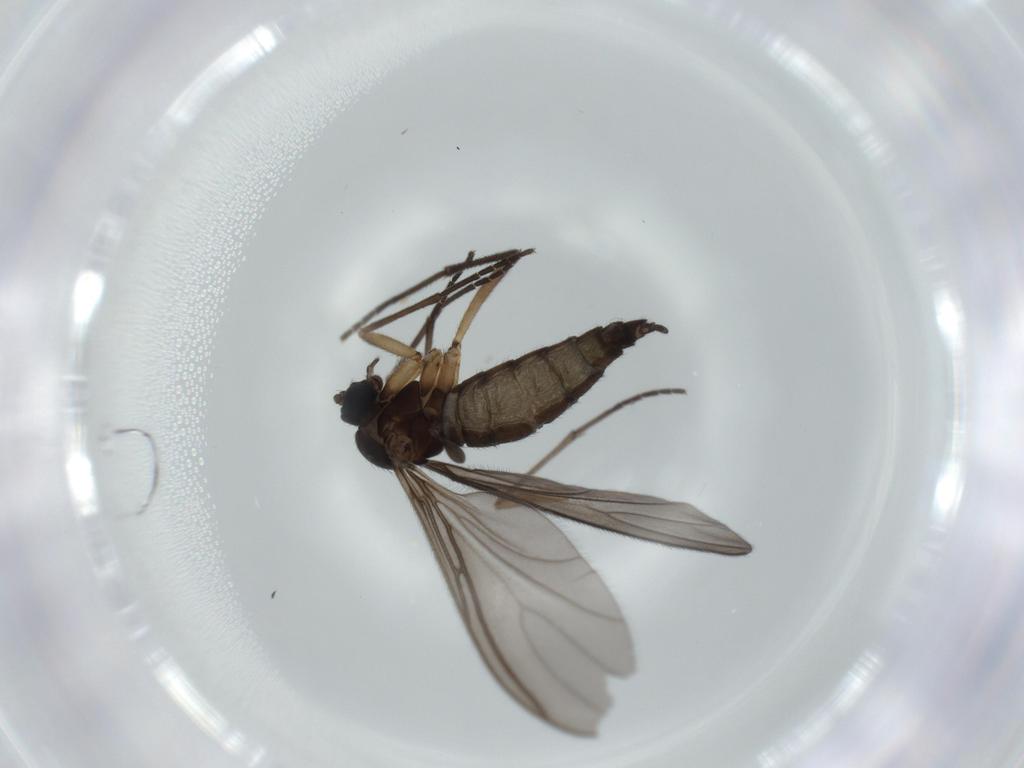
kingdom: Animalia
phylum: Arthropoda
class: Insecta
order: Diptera
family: Sciaridae
